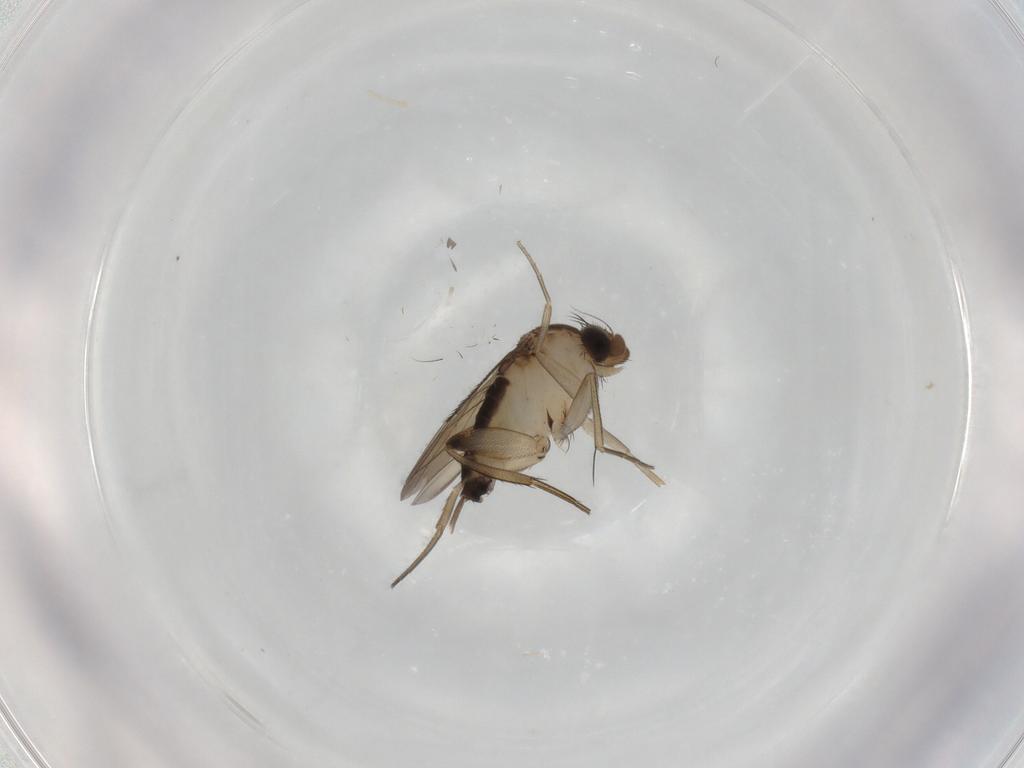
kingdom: Animalia
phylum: Arthropoda
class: Insecta
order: Diptera
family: Phoridae
